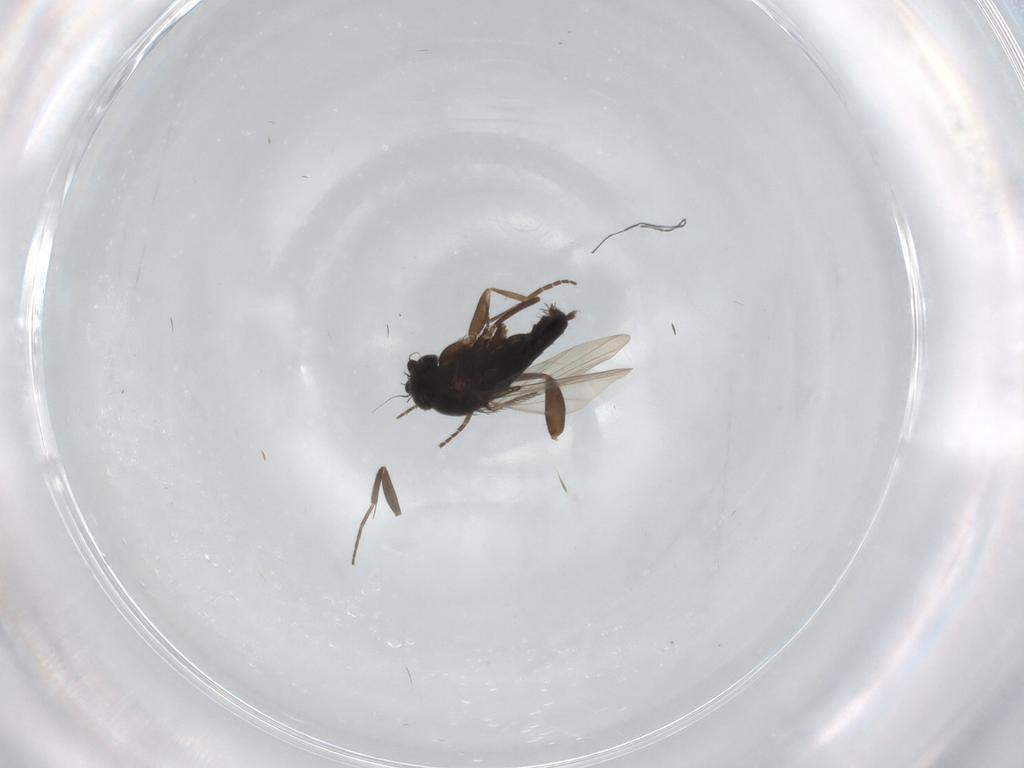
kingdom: Animalia
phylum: Arthropoda
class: Insecta
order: Diptera
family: Phoridae
